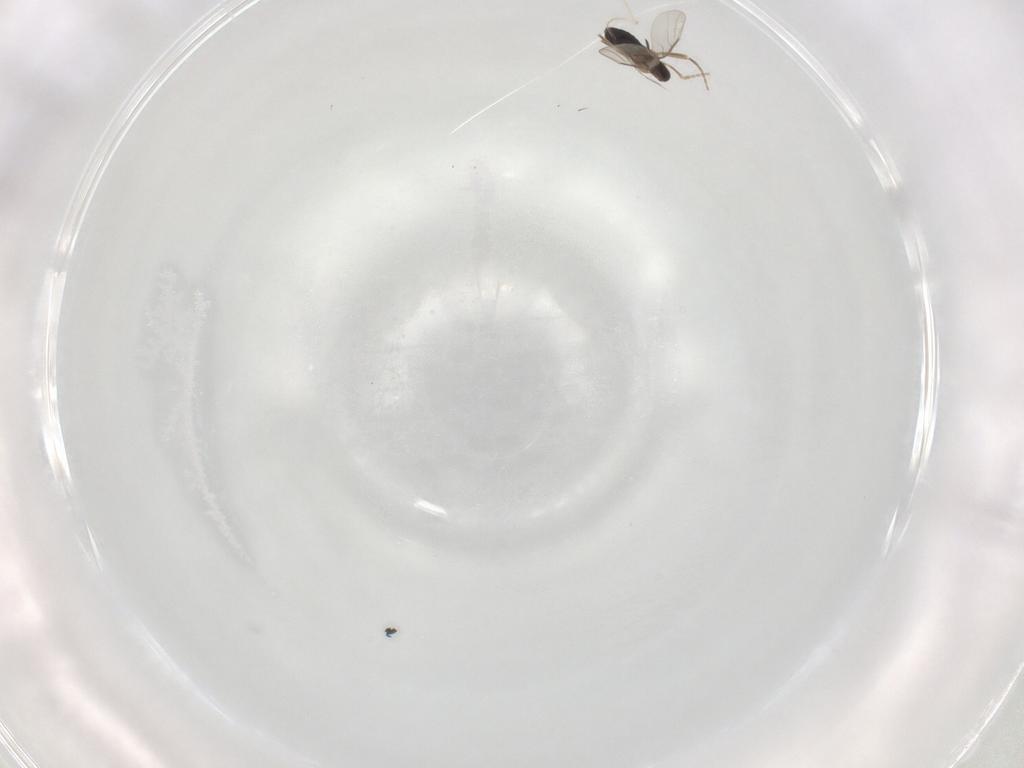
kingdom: Animalia
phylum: Arthropoda
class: Insecta
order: Diptera
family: Phoridae
